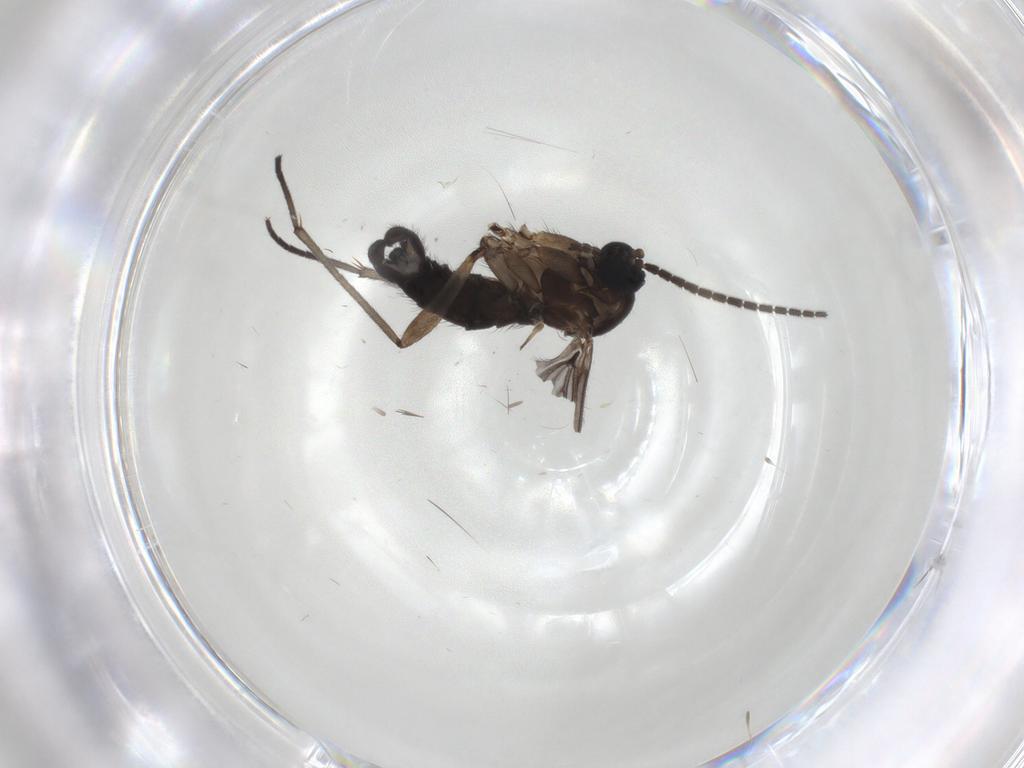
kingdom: Animalia
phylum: Arthropoda
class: Insecta
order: Diptera
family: Sciaridae
